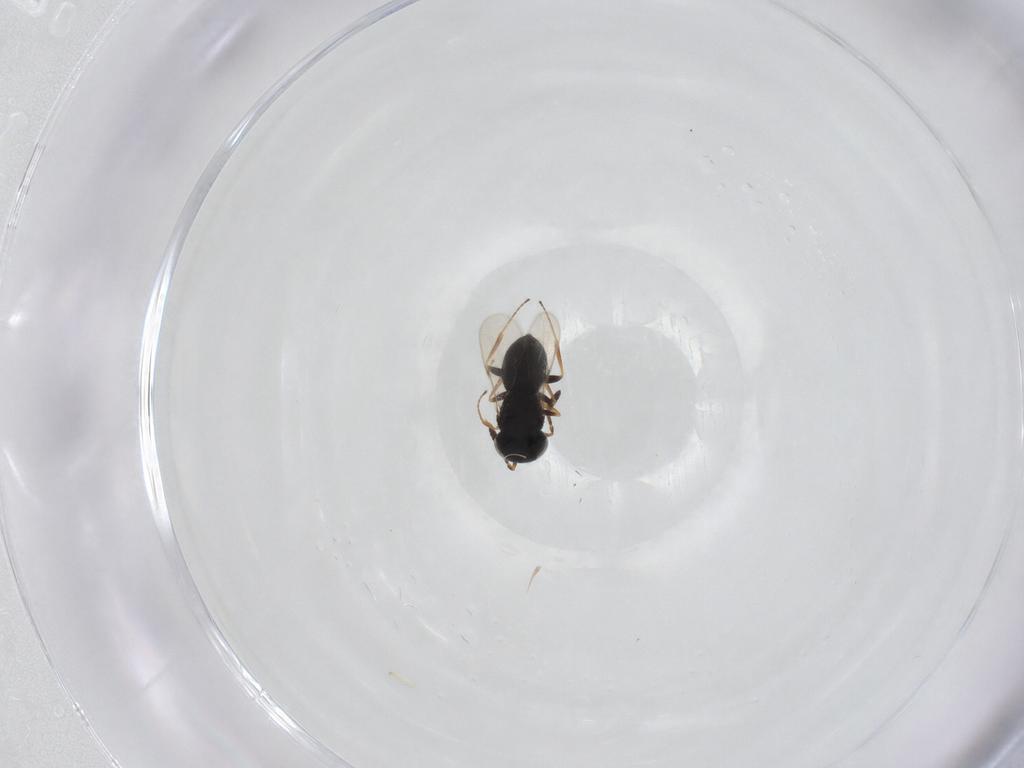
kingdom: Animalia
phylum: Arthropoda
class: Insecta
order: Hymenoptera
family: Scelionidae
